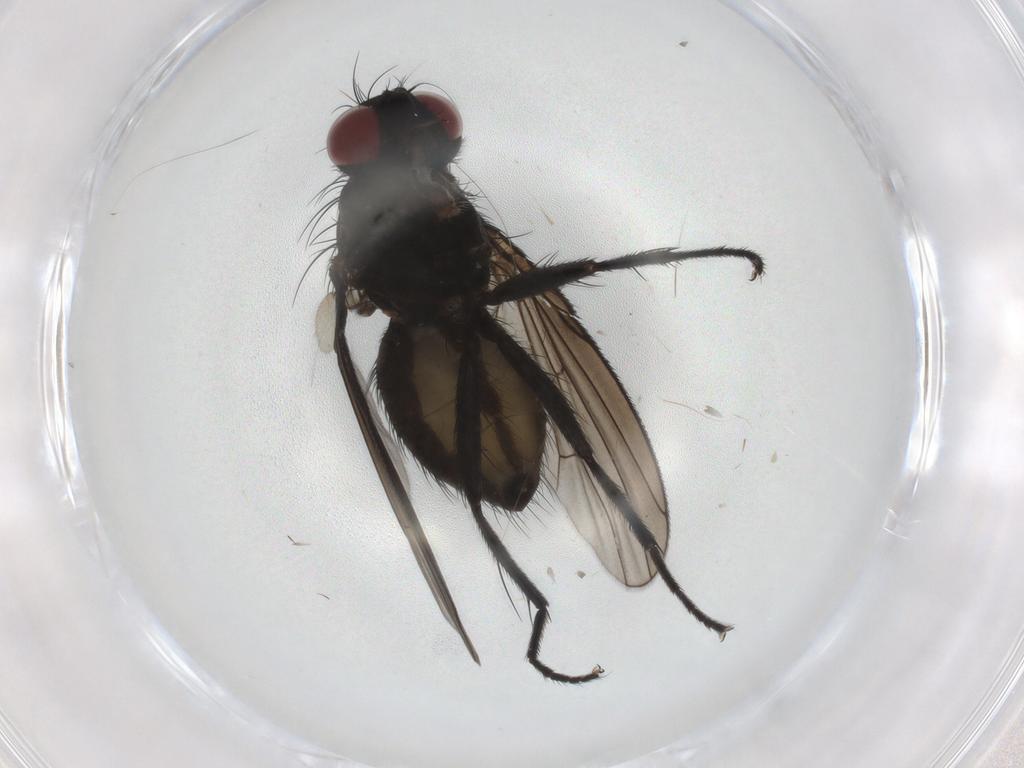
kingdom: Animalia
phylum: Arthropoda
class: Insecta
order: Diptera
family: Muscidae
